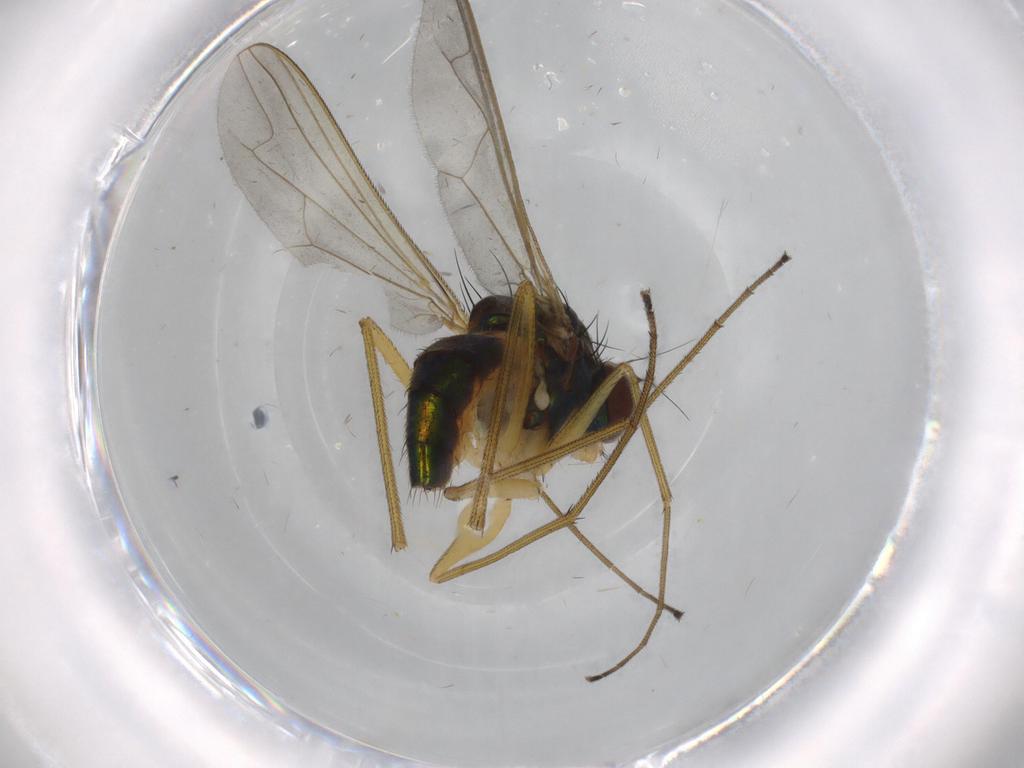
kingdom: Animalia
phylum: Arthropoda
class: Insecta
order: Diptera
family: Dolichopodidae
